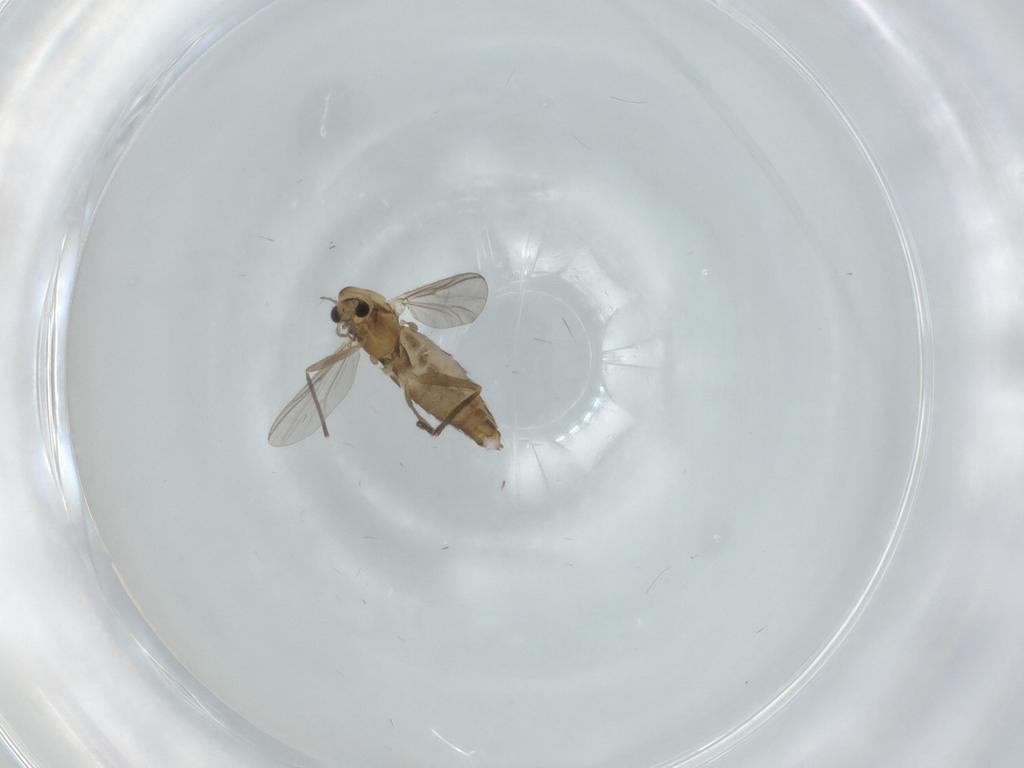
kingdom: Animalia
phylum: Arthropoda
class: Insecta
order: Diptera
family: Chironomidae
